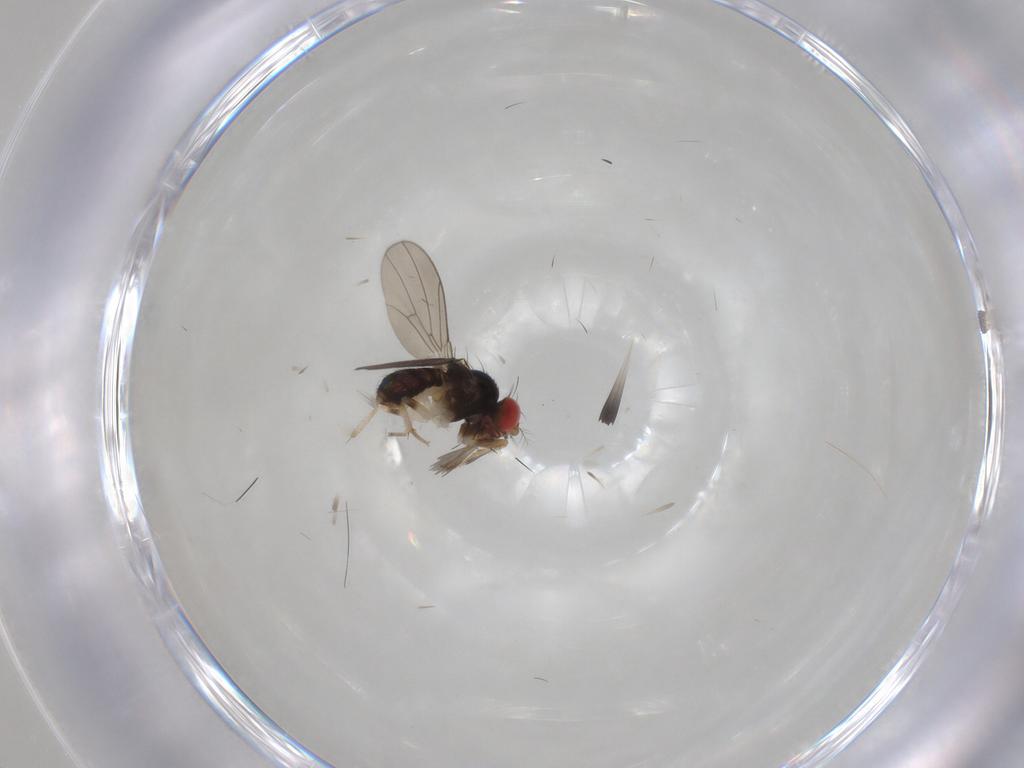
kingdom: Animalia
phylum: Arthropoda
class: Insecta
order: Diptera
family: Drosophilidae
